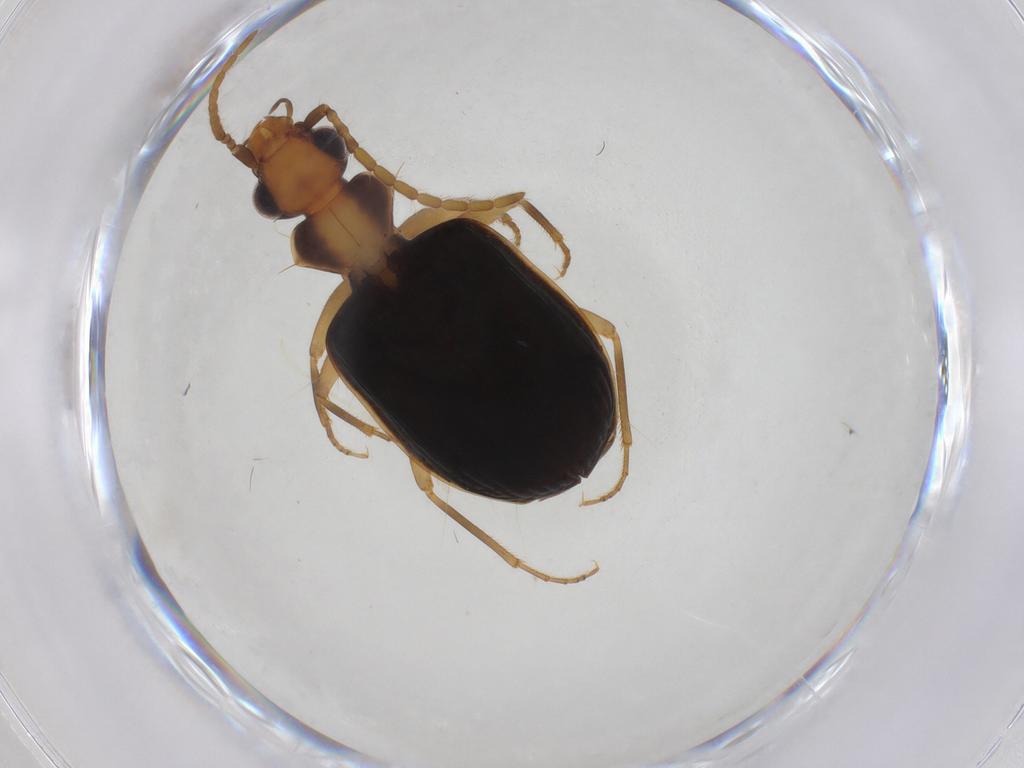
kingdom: Animalia
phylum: Arthropoda
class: Insecta
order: Coleoptera
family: Carabidae
